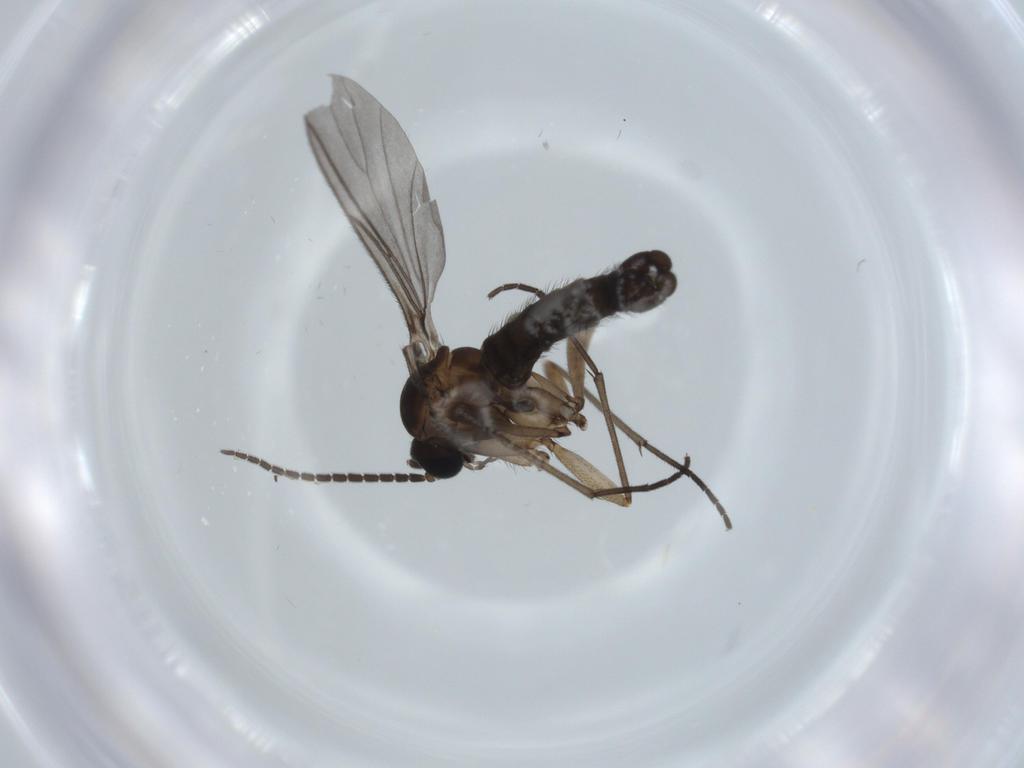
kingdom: Animalia
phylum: Arthropoda
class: Insecta
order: Diptera
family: Sciaridae
